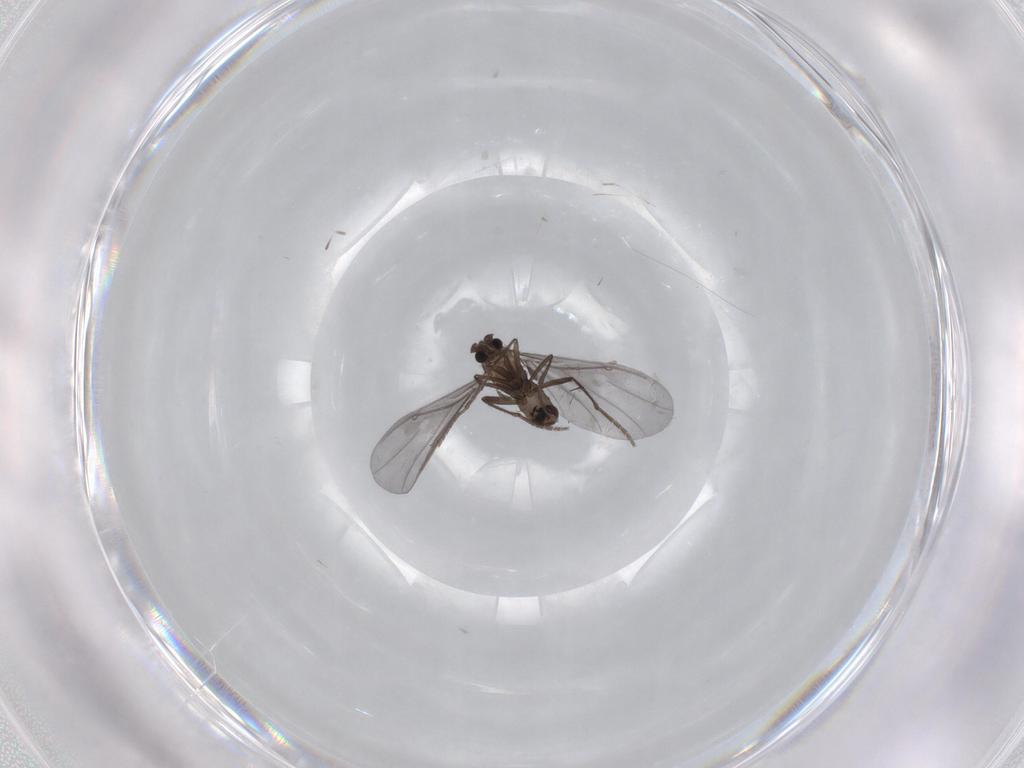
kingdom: Animalia
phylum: Arthropoda
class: Insecta
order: Diptera
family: Phoridae
